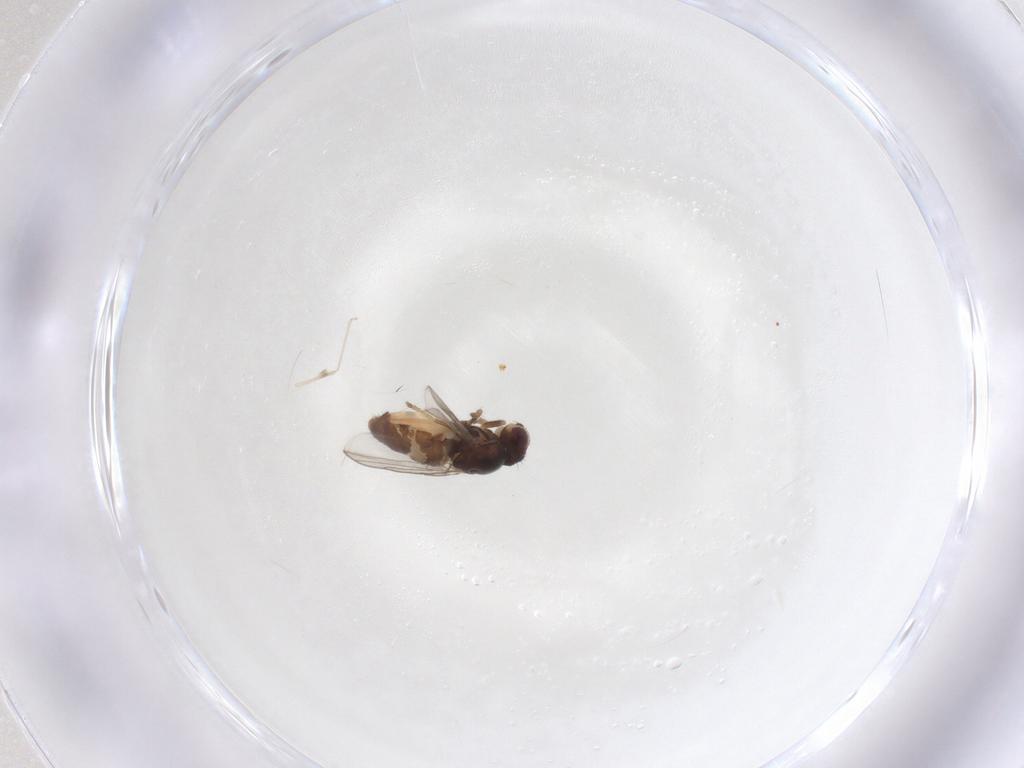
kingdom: Animalia
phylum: Arthropoda
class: Insecta
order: Diptera
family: Chloropidae
